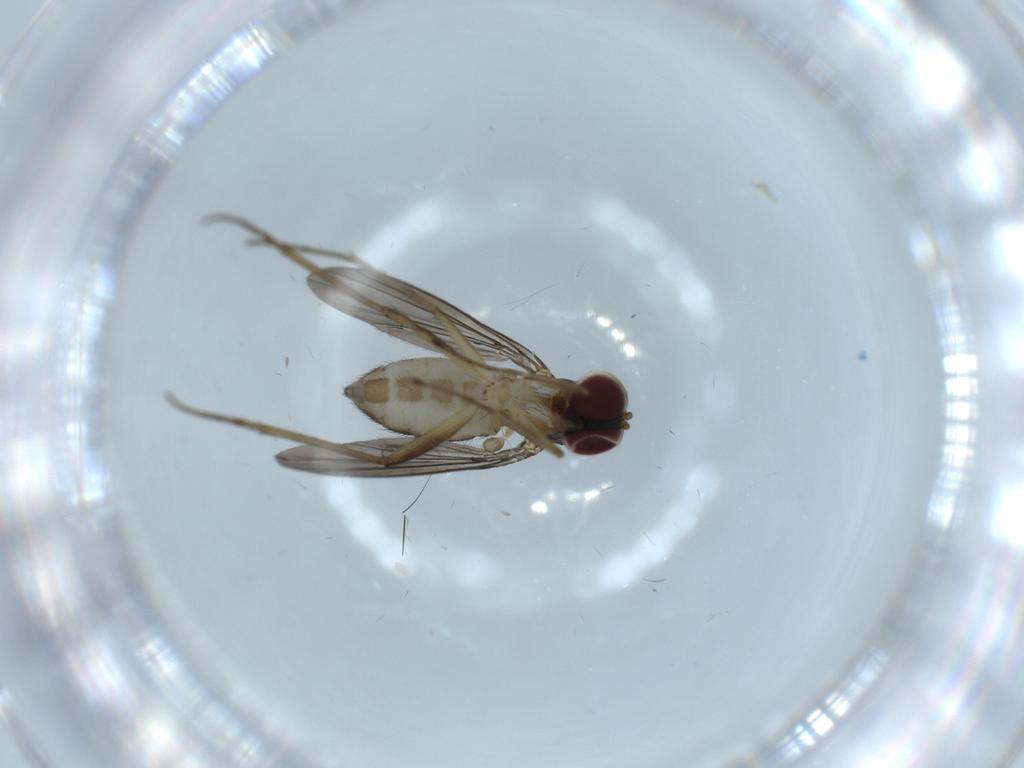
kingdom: Animalia
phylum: Arthropoda
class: Insecta
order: Diptera
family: Dolichopodidae
